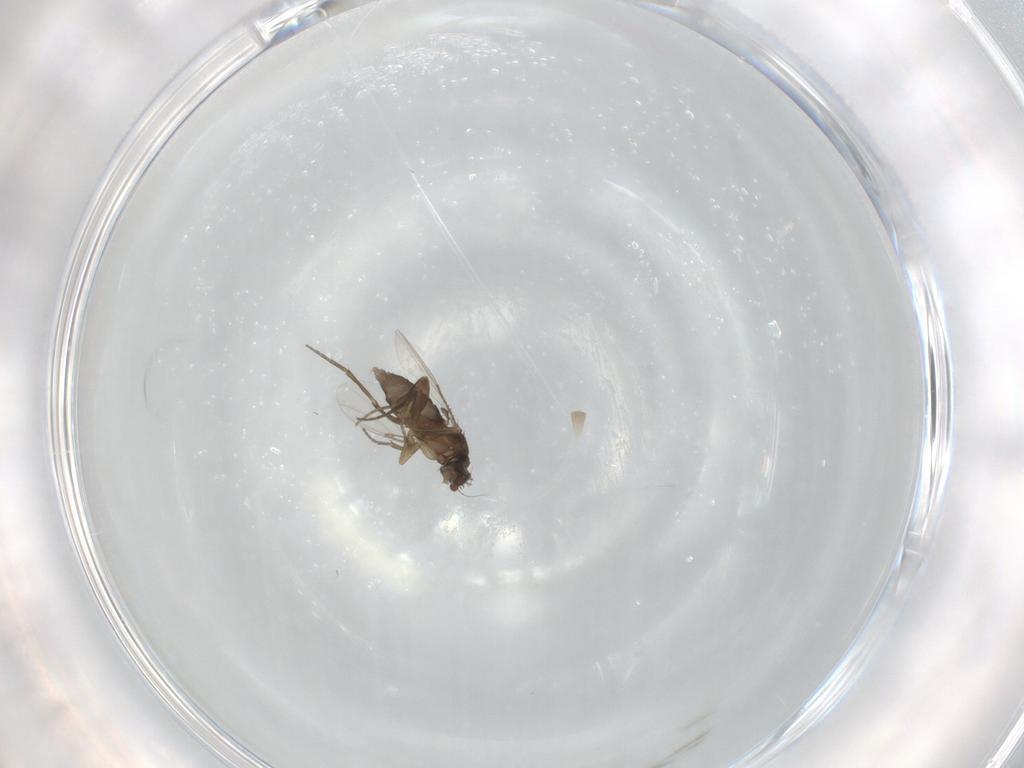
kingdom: Animalia
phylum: Arthropoda
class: Insecta
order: Diptera
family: Phoridae
